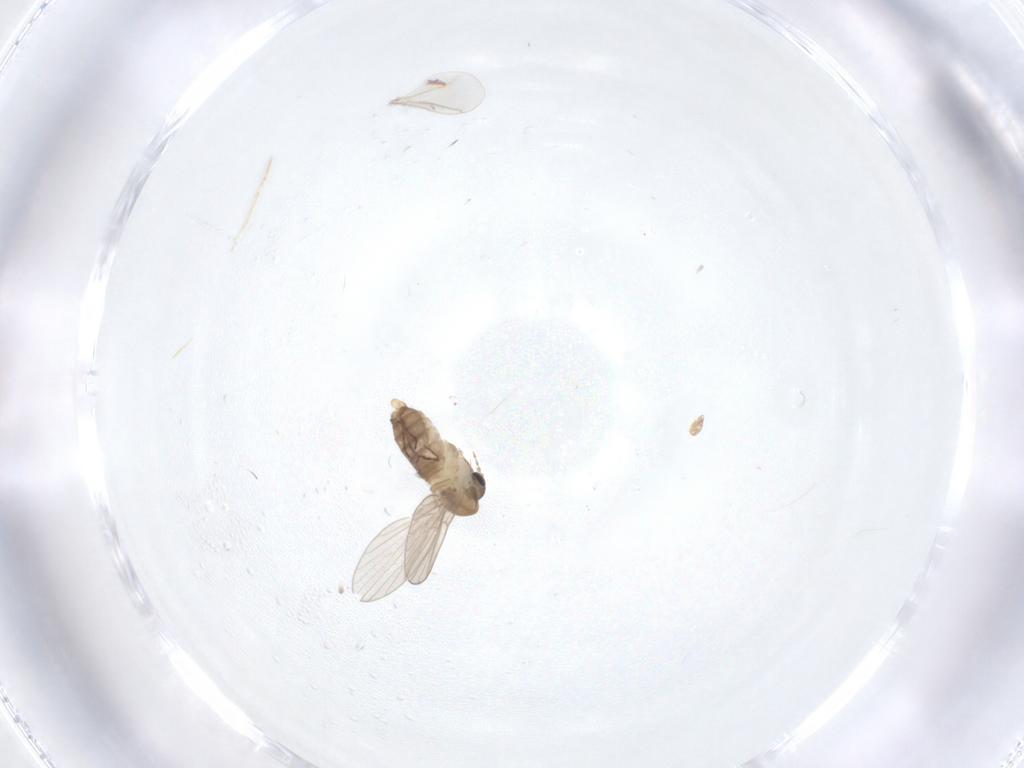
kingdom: Animalia
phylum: Arthropoda
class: Insecta
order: Diptera
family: Psychodidae
